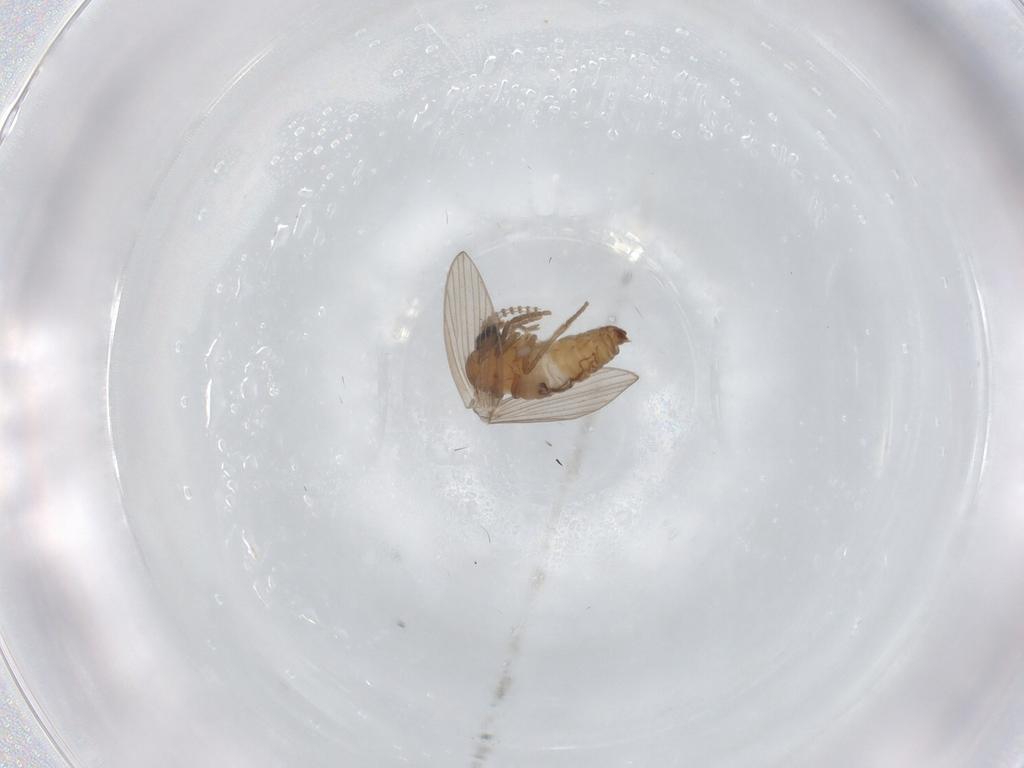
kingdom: Animalia
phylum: Arthropoda
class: Insecta
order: Diptera
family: Psychodidae
